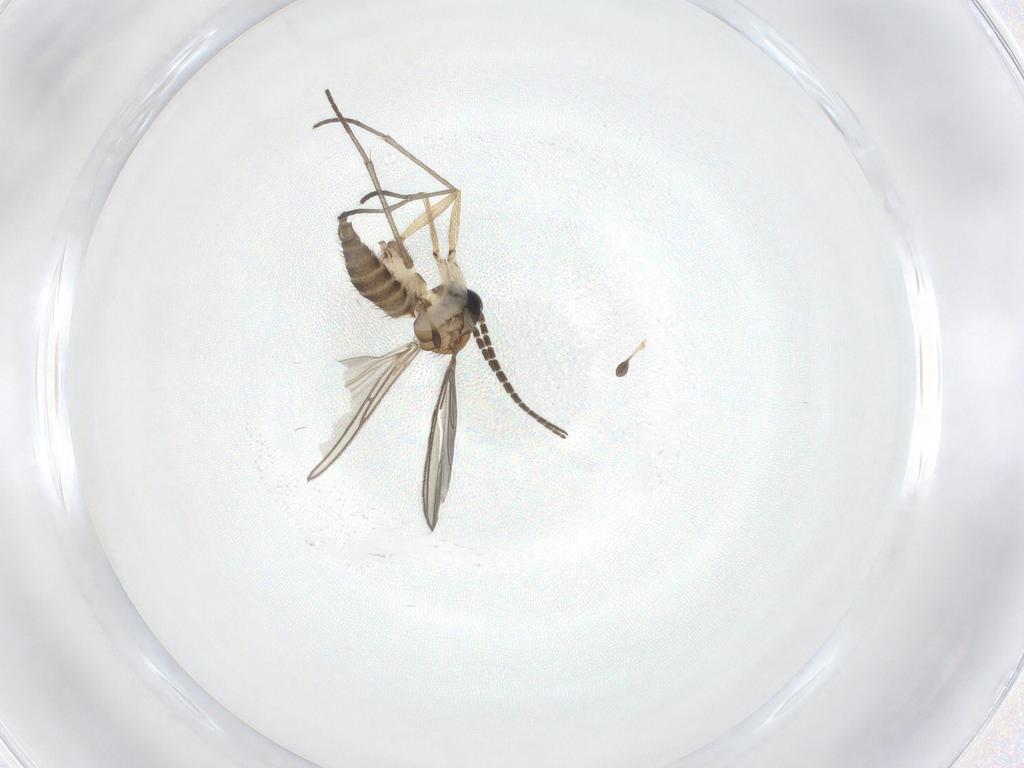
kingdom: Animalia
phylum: Arthropoda
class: Insecta
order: Diptera
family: Sciaridae
